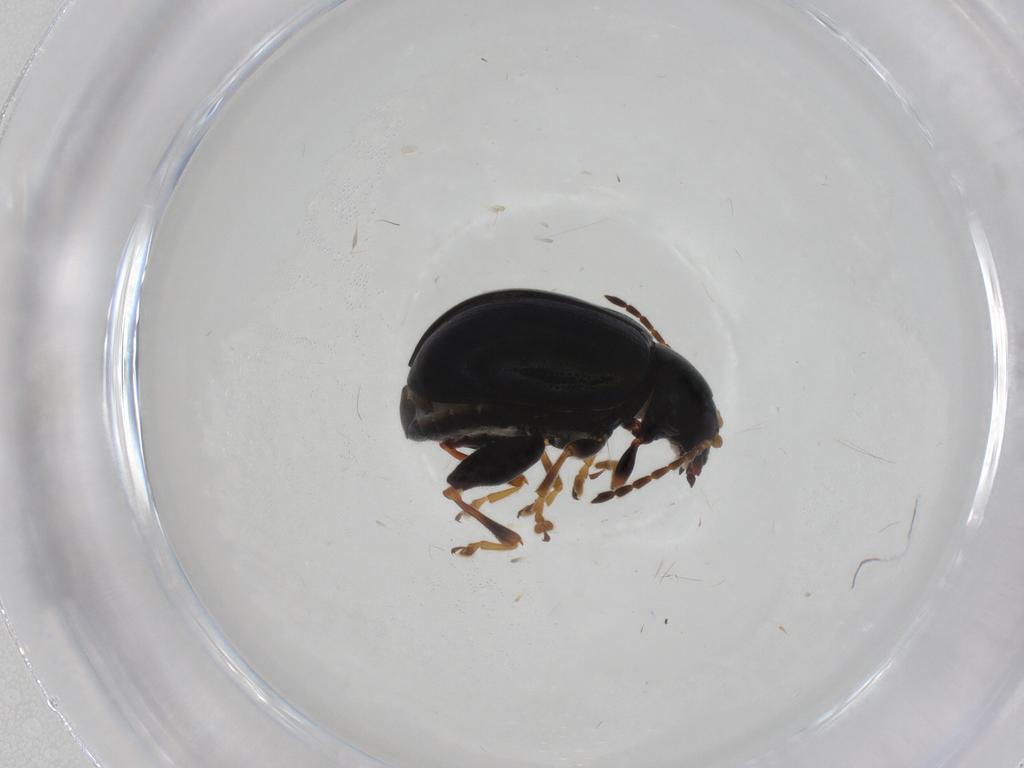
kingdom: Animalia
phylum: Arthropoda
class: Insecta
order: Coleoptera
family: Chrysomelidae
